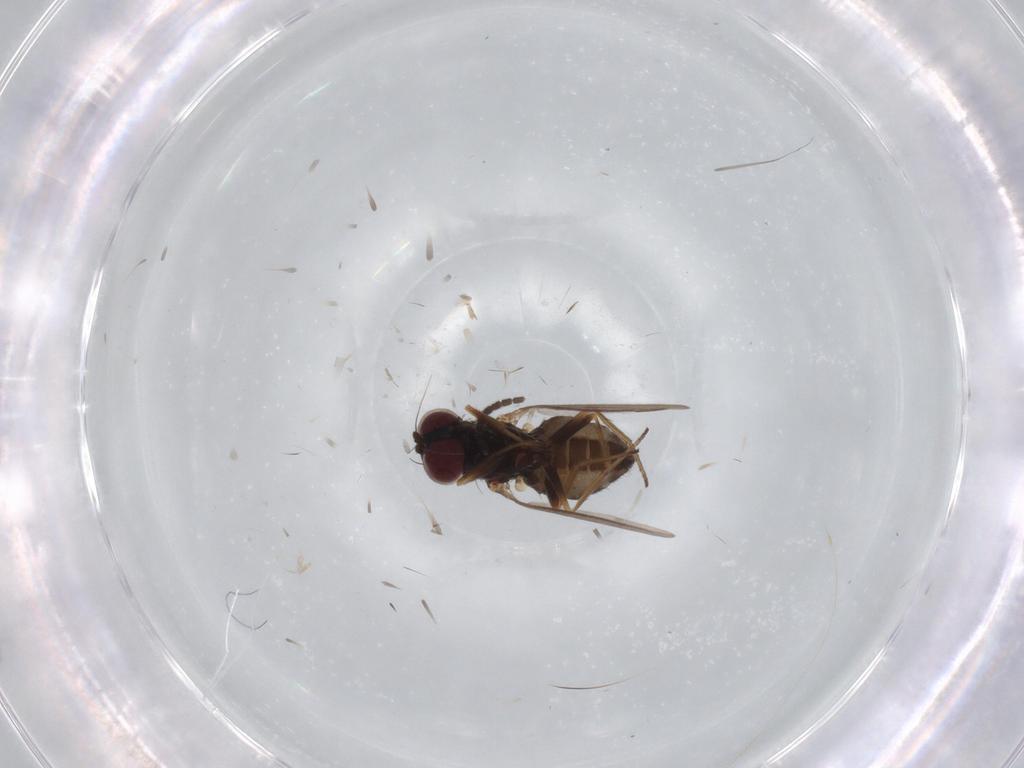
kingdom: Animalia
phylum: Arthropoda
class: Insecta
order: Diptera
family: Dolichopodidae
